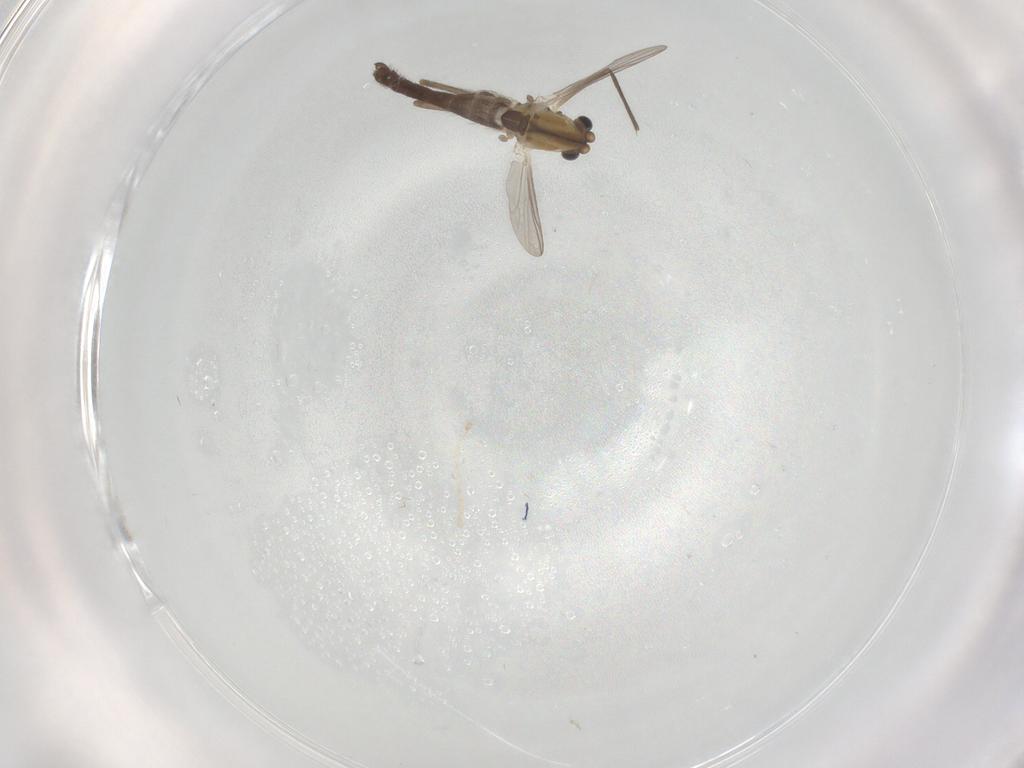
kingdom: Animalia
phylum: Arthropoda
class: Insecta
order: Diptera
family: Chironomidae
